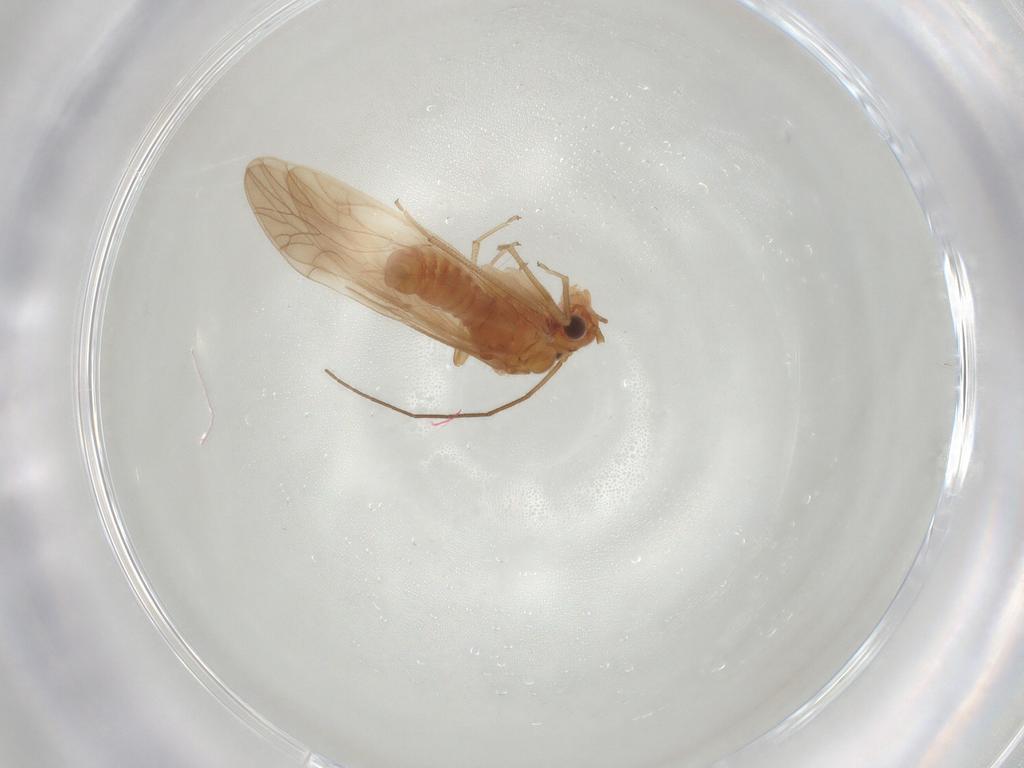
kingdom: Animalia
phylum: Arthropoda
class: Insecta
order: Psocodea
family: Caeciliusidae
